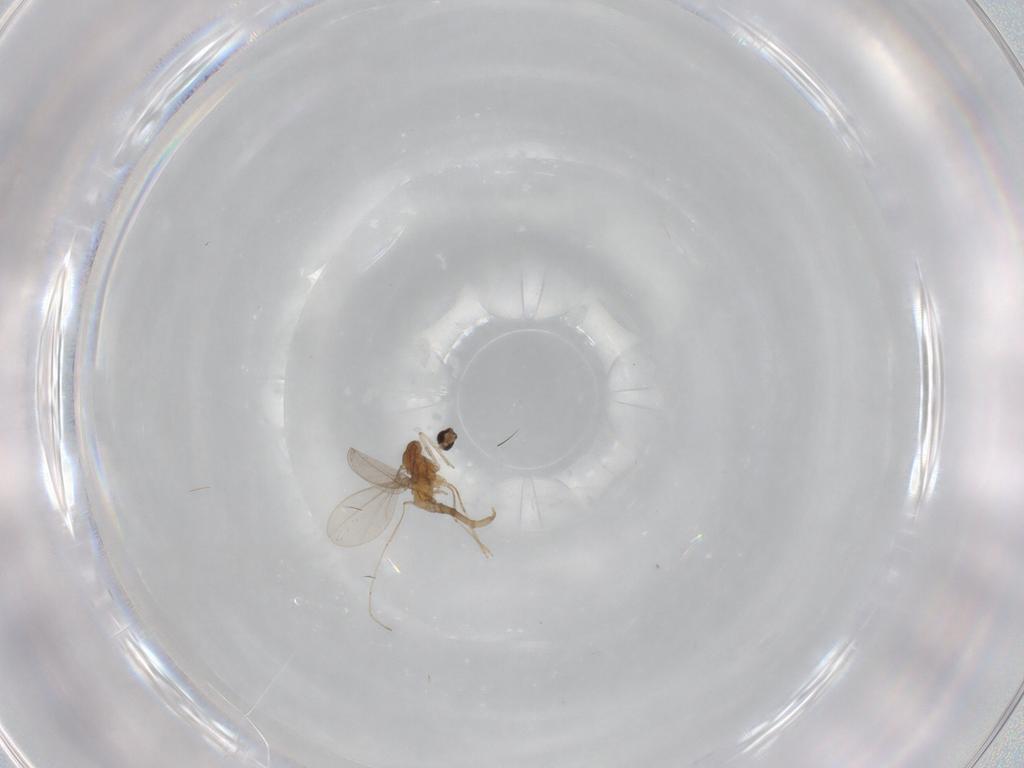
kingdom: Animalia
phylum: Arthropoda
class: Insecta
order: Diptera
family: Cecidomyiidae
